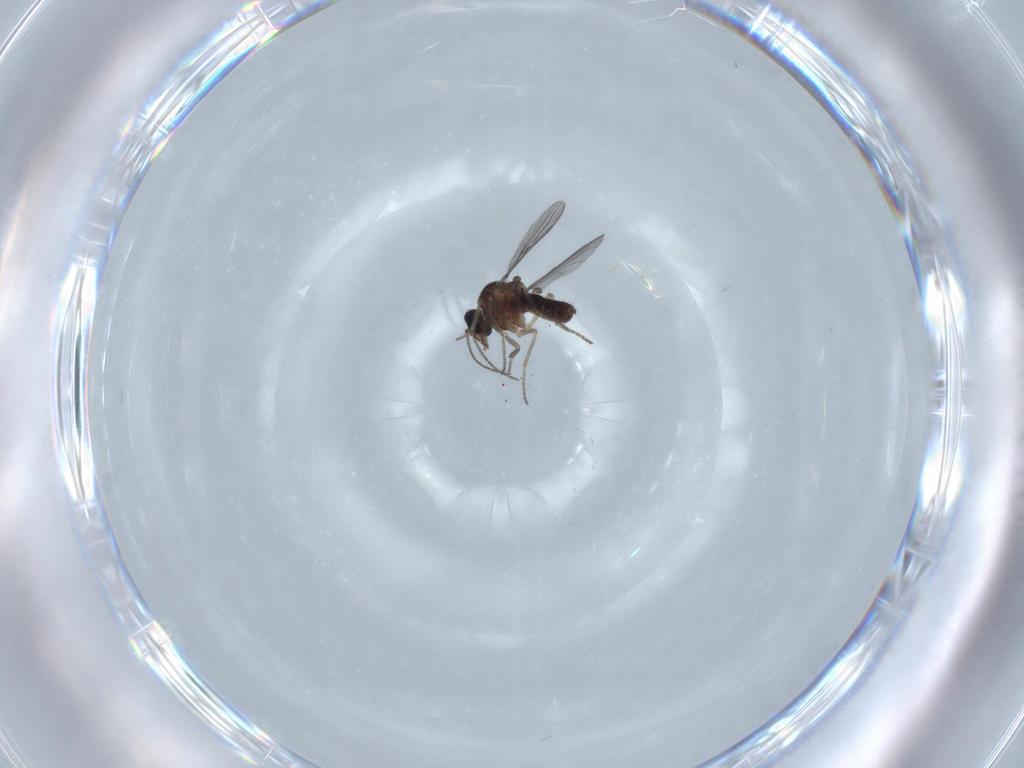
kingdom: Animalia
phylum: Arthropoda
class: Insecta
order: Diptera
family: Ceratopogonidae
